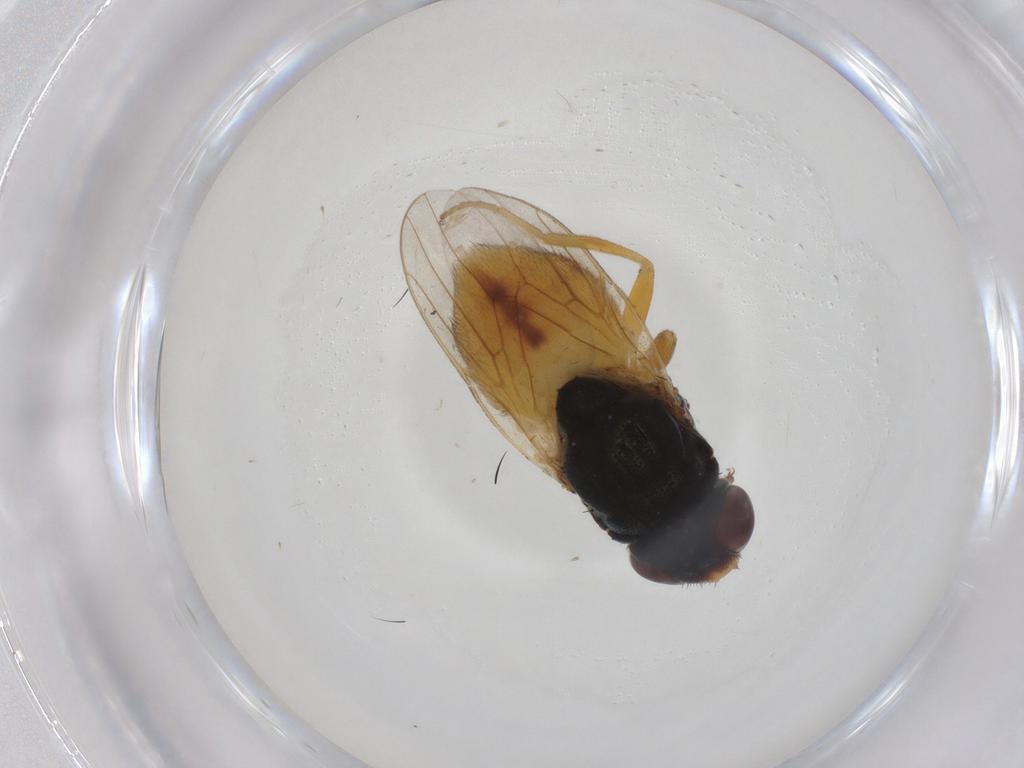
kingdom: Animalia
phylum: Arthropoda
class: Insecta
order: Diptera
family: Chloropidae
